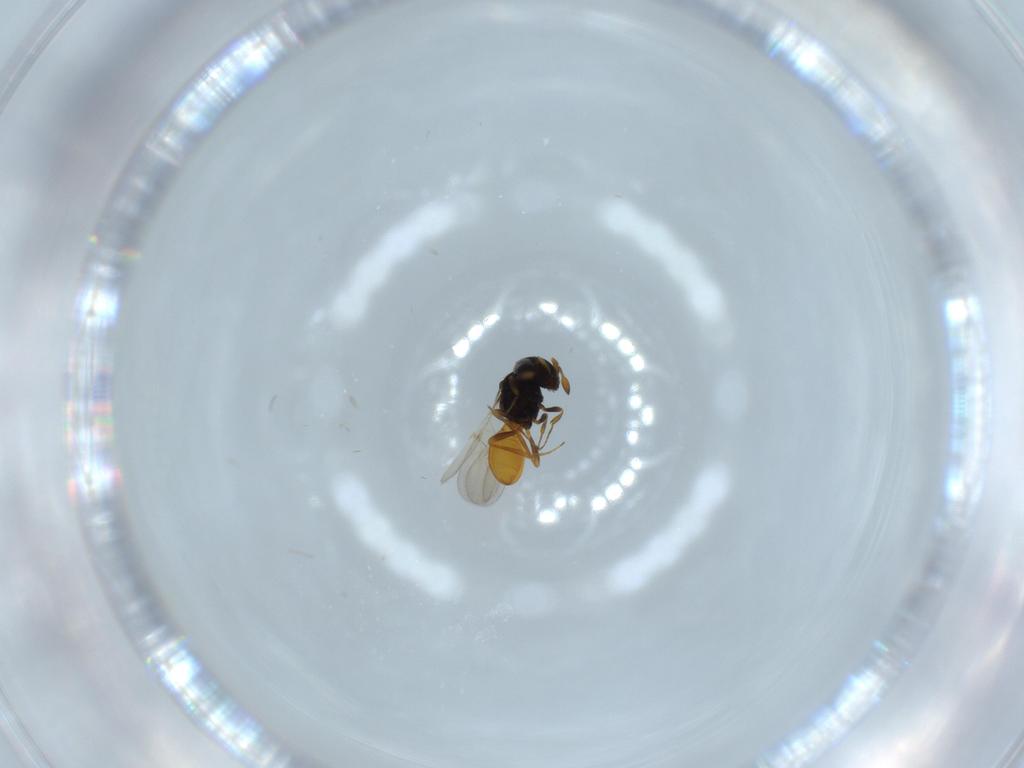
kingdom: Animalia
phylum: Arthropoda
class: Insecta
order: Hymenoptera
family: Scelionidae
